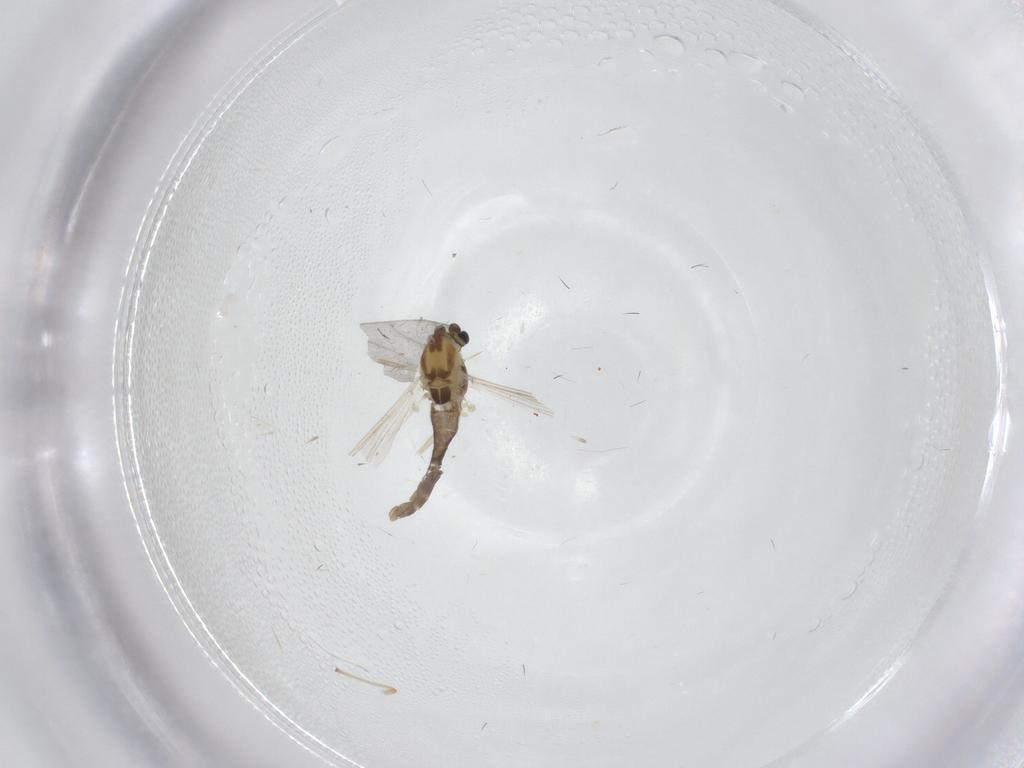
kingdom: Animalia
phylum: Arthropoda
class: Insecta
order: Diptera
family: Chironomidae
